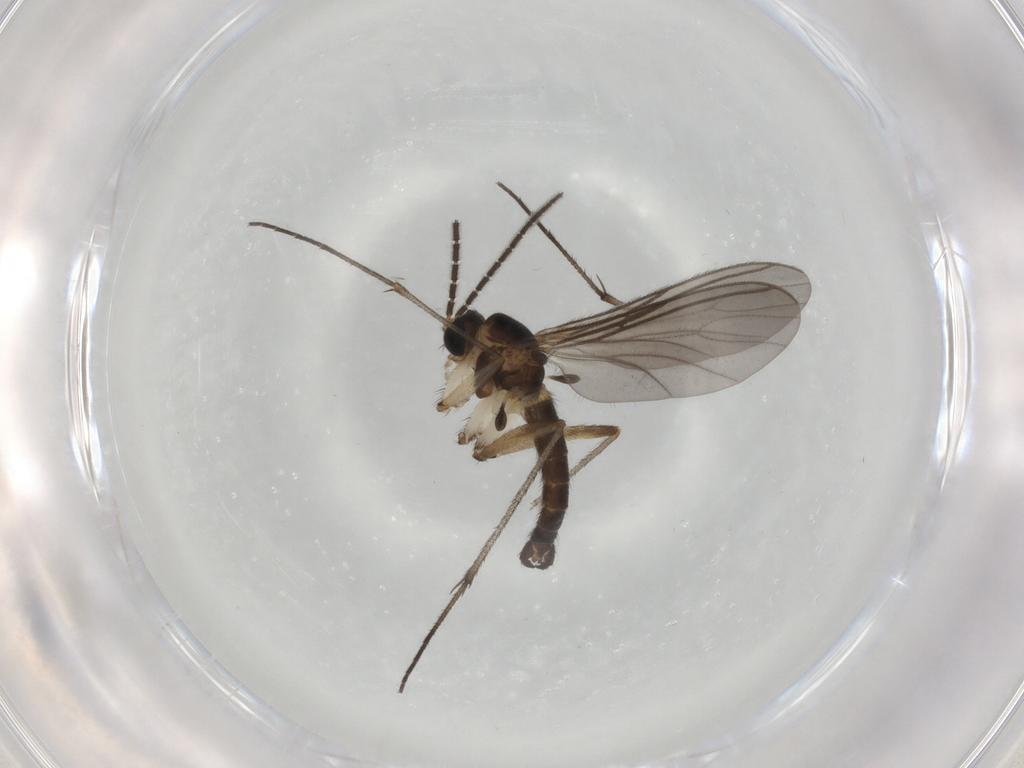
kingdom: Animalia
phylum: Arthropoda
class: Insecta
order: Diptera
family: Sciaridae
